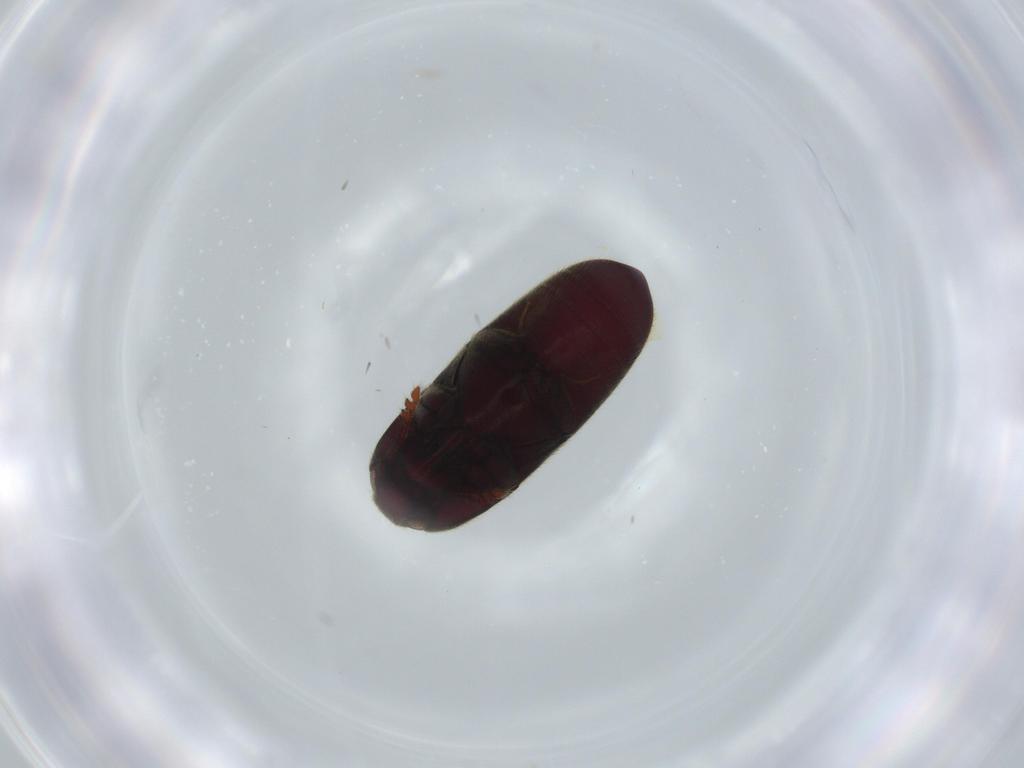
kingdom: Animalia
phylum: Arthropoda
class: Insecta
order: Coleoptera
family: Throscidae
